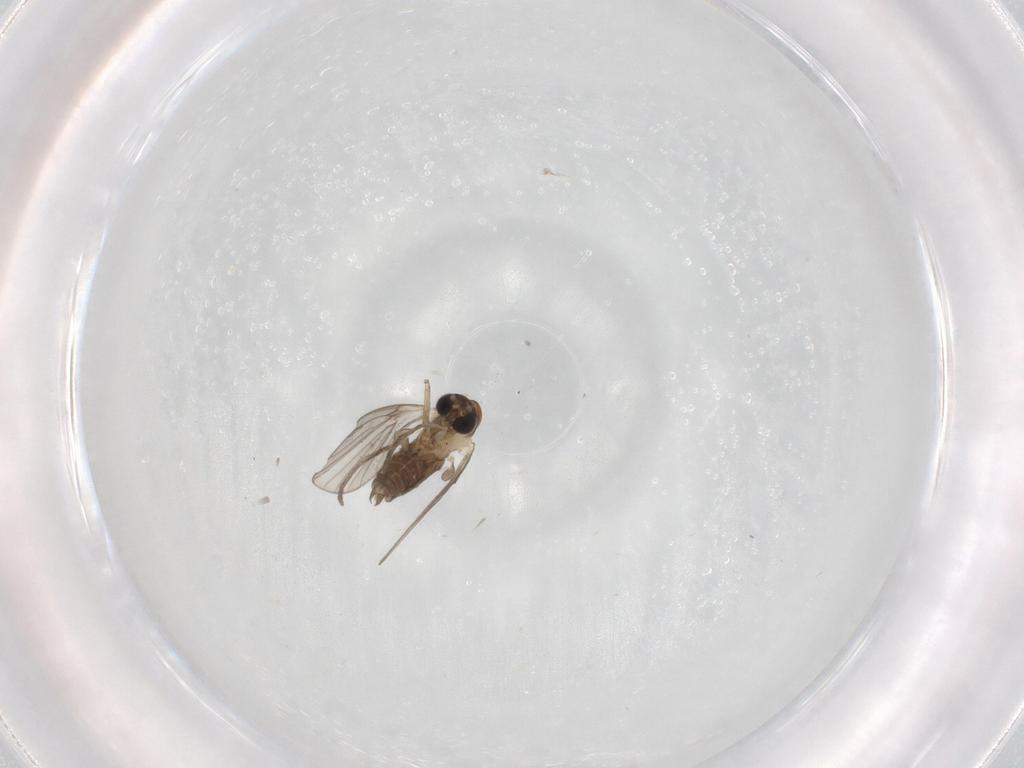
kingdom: Animalia
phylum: Arthropoda
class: Insecta
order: Diptera
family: Psychodidae
